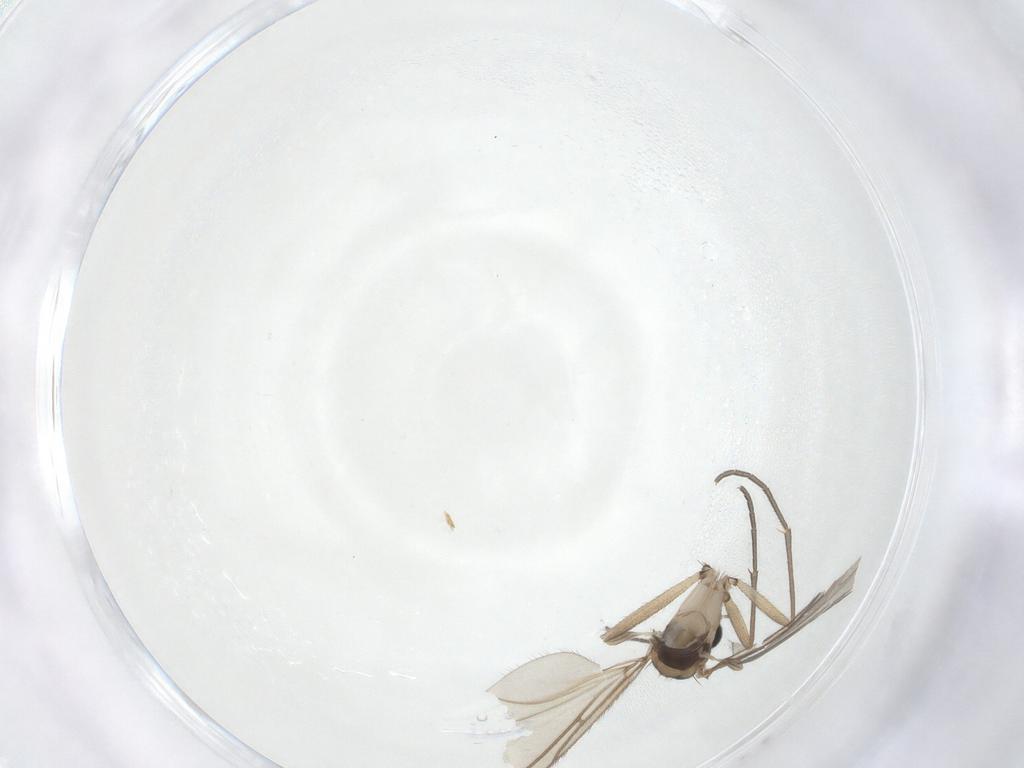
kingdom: Animalia
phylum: Arthropoda
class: Insecta
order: Diptera
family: Sciaridae
